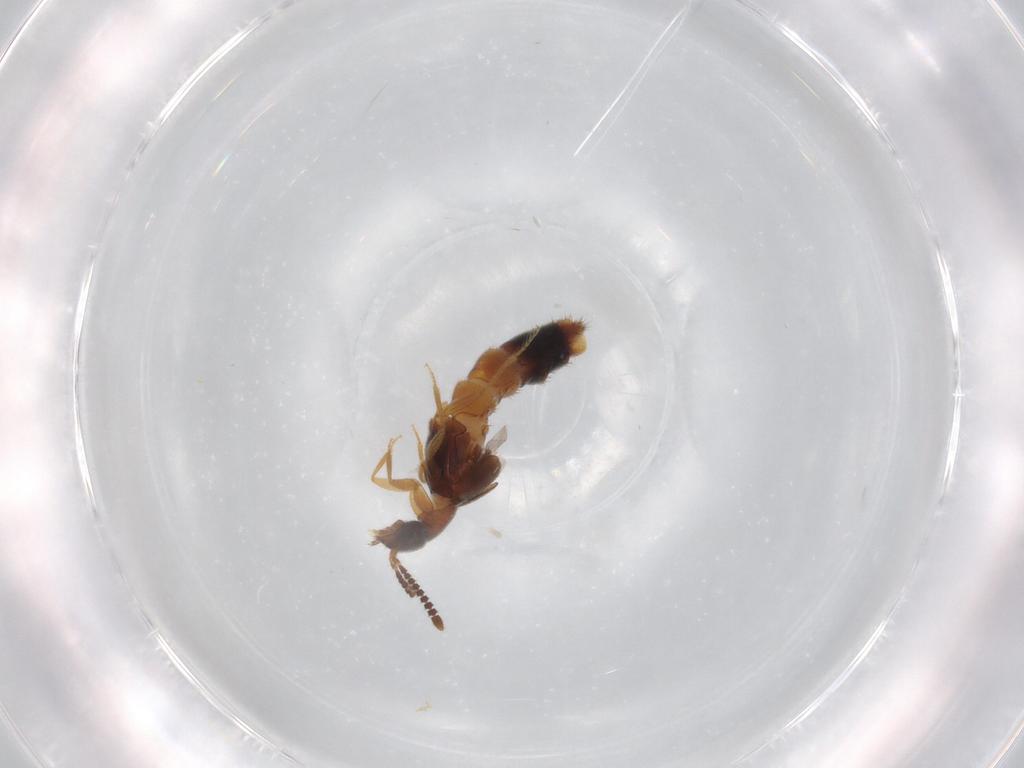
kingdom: Animalia
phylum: Arthropoda
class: Insecta
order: Coleoptera
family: Staphylinidae
